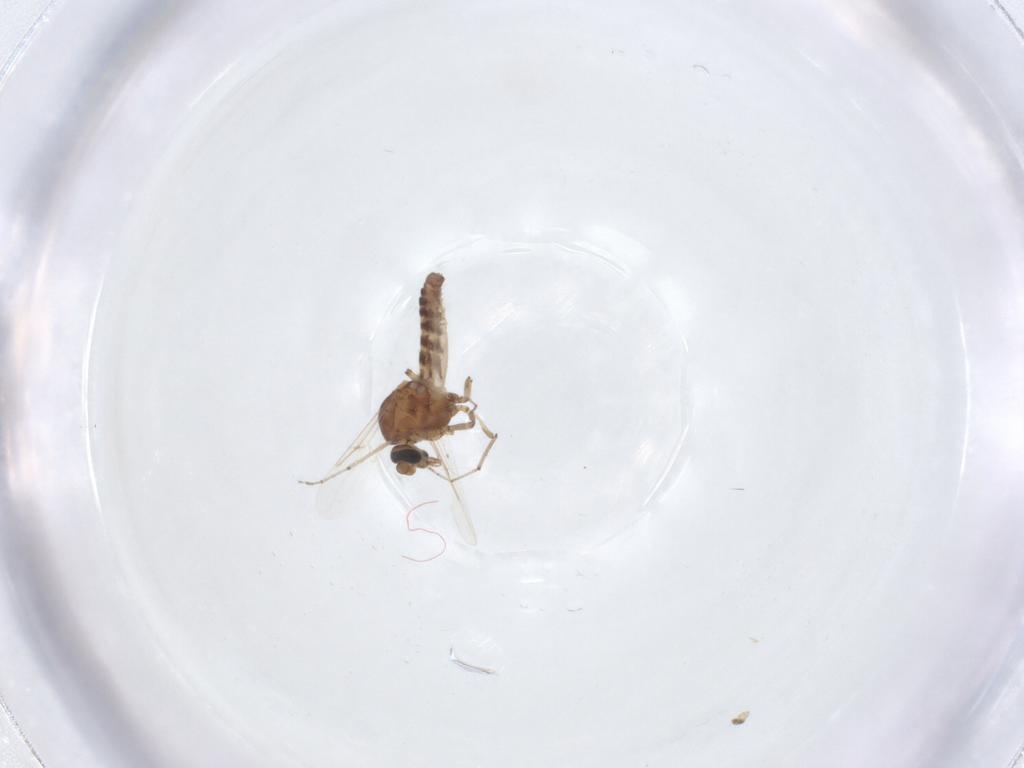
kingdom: Animalia
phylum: Arthropoda
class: Insecta
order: Diptera
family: Ceratopogonidae
